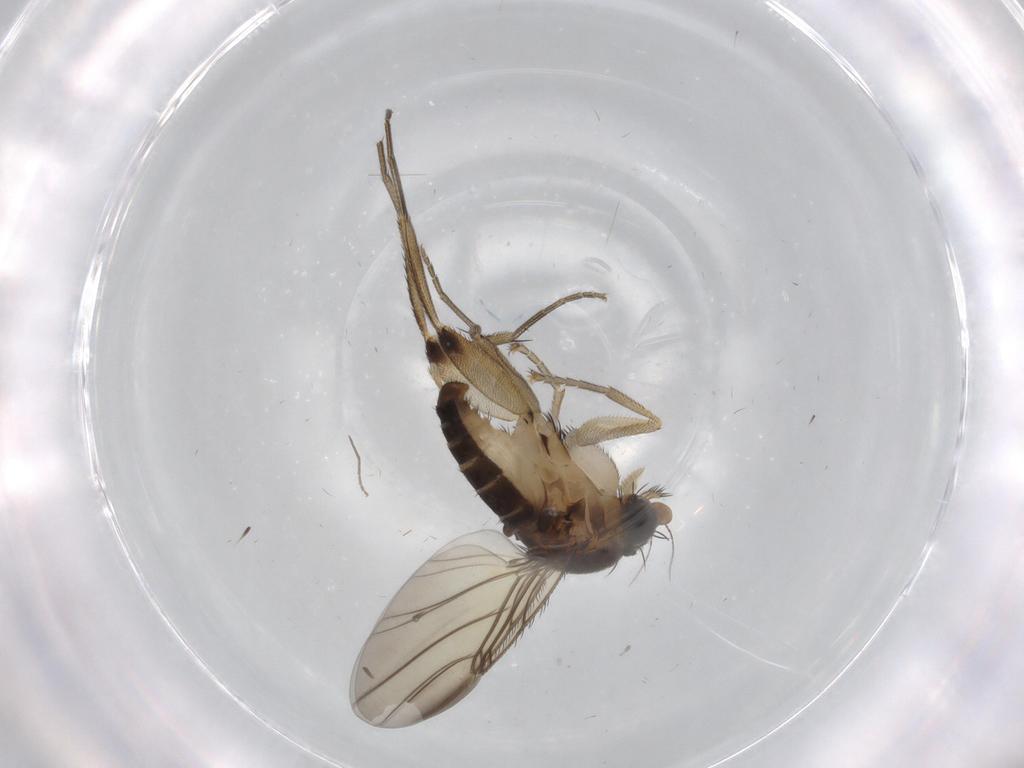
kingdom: Animalia
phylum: Arthropoda
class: Insecta
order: Diptera
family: Phoridae
